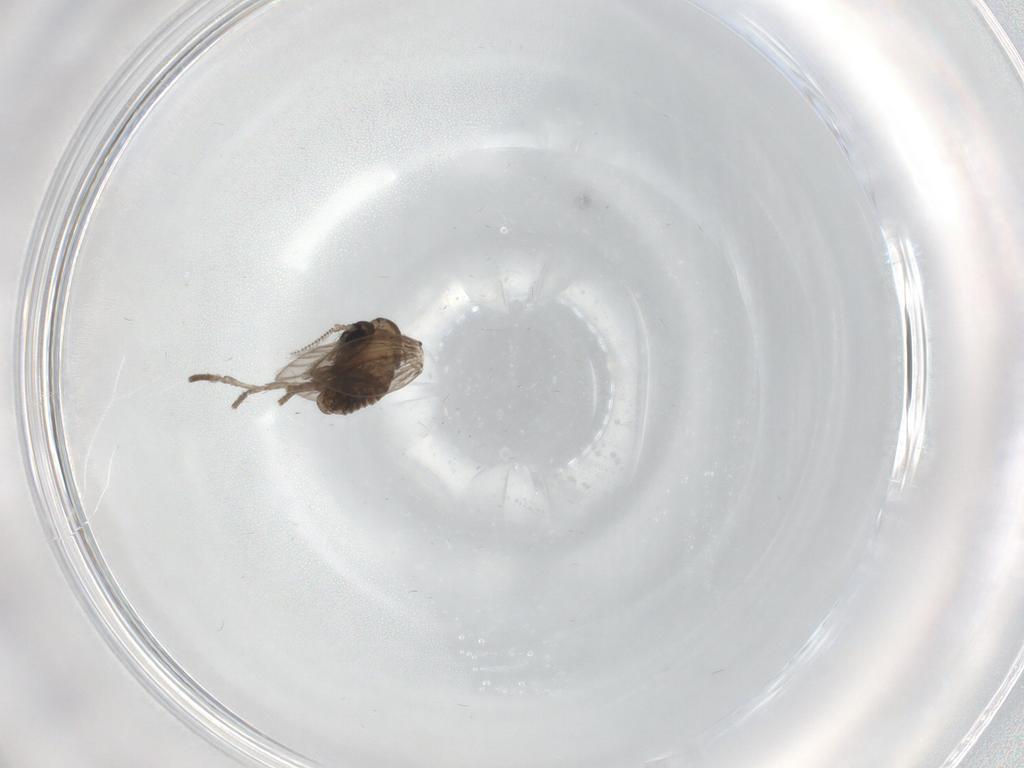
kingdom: Animalia
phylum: Arthropoda
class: Insecta
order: Diptera
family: Psychodidae
